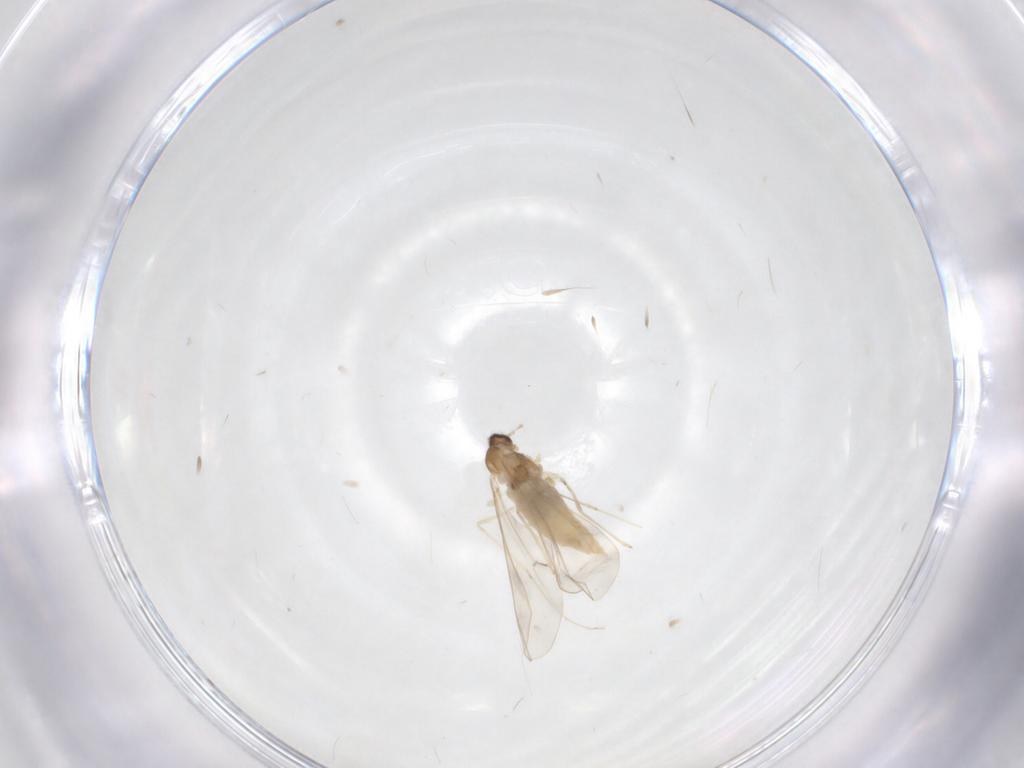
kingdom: Animalia
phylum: Arthropoda
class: Insecta
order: Diptera
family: Cecidomyiidae
